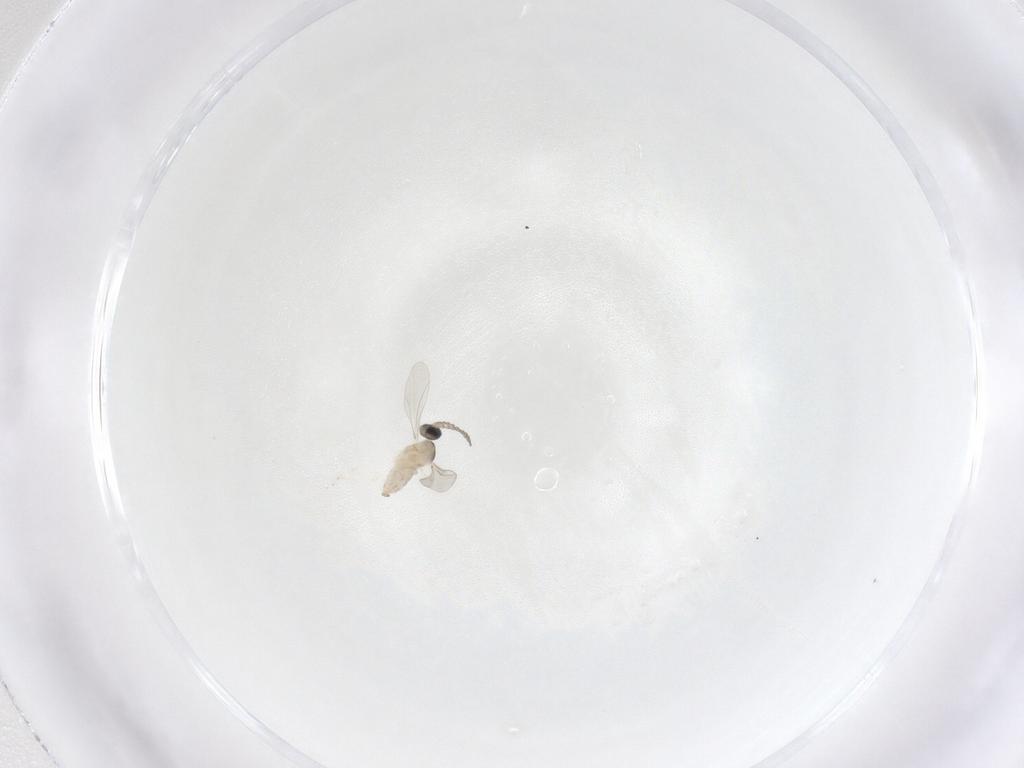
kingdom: Animalia
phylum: Arthropoda
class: Insecta
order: Diptera
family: Cecidomyiidae
